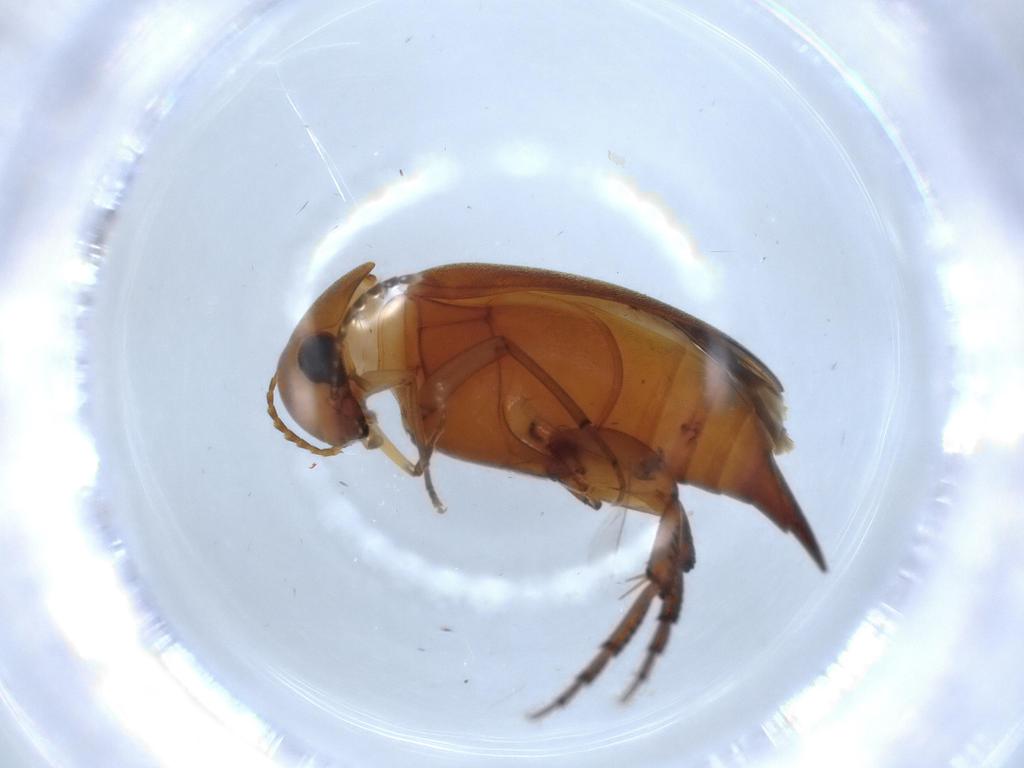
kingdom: Animalia
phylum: Arthropoda
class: Insecta
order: Coleoptera
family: Mordellidae
